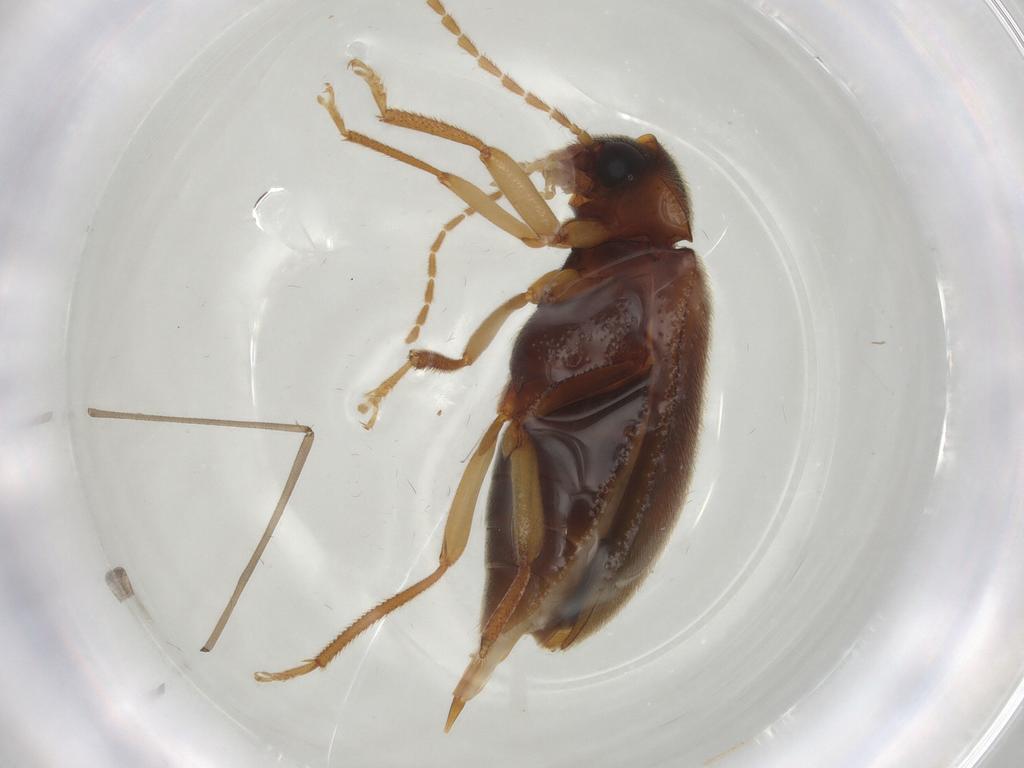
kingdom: Animalia
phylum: Arthropoda
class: Insecta
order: Coleoptera
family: Ptilodactylidae
